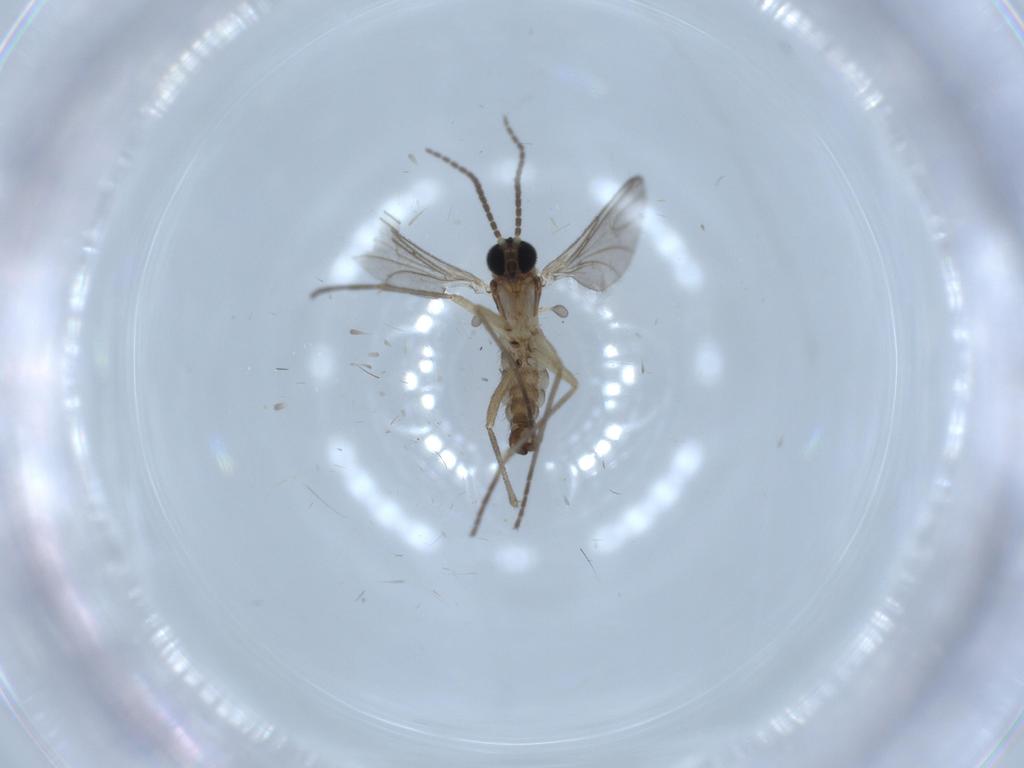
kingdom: Animalia
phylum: Arthropoda
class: Insecta
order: Diptera
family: Sciaridae
